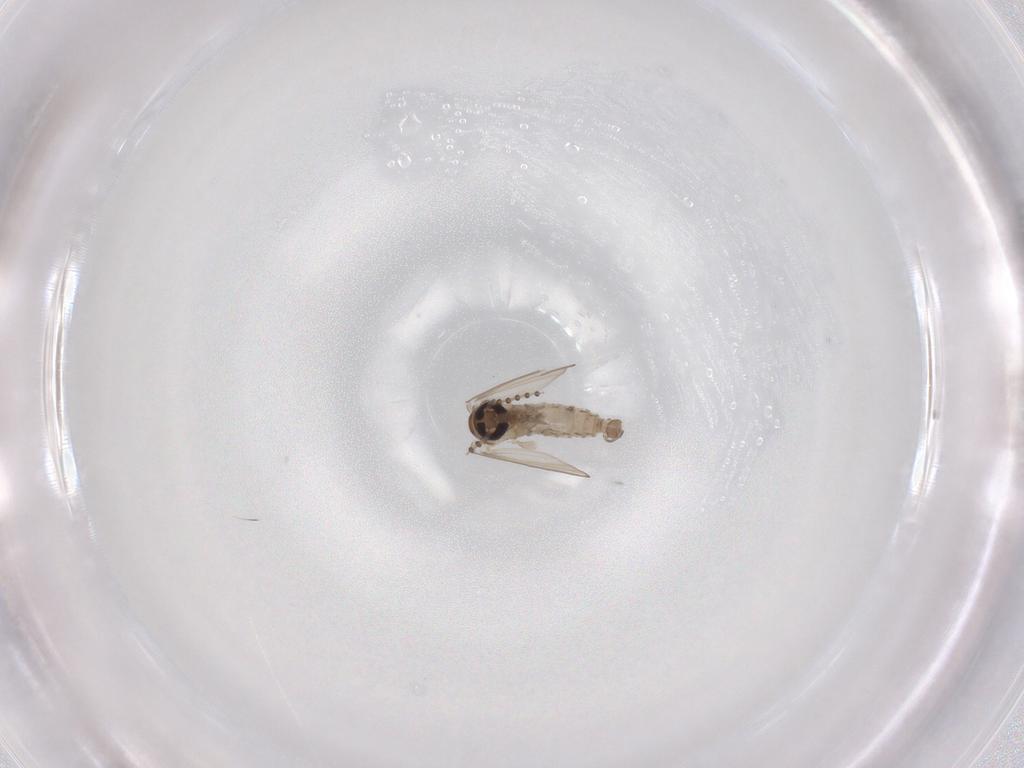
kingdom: Animalia
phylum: Arthropoda
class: Insecta
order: Diptera
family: Psychodidae
